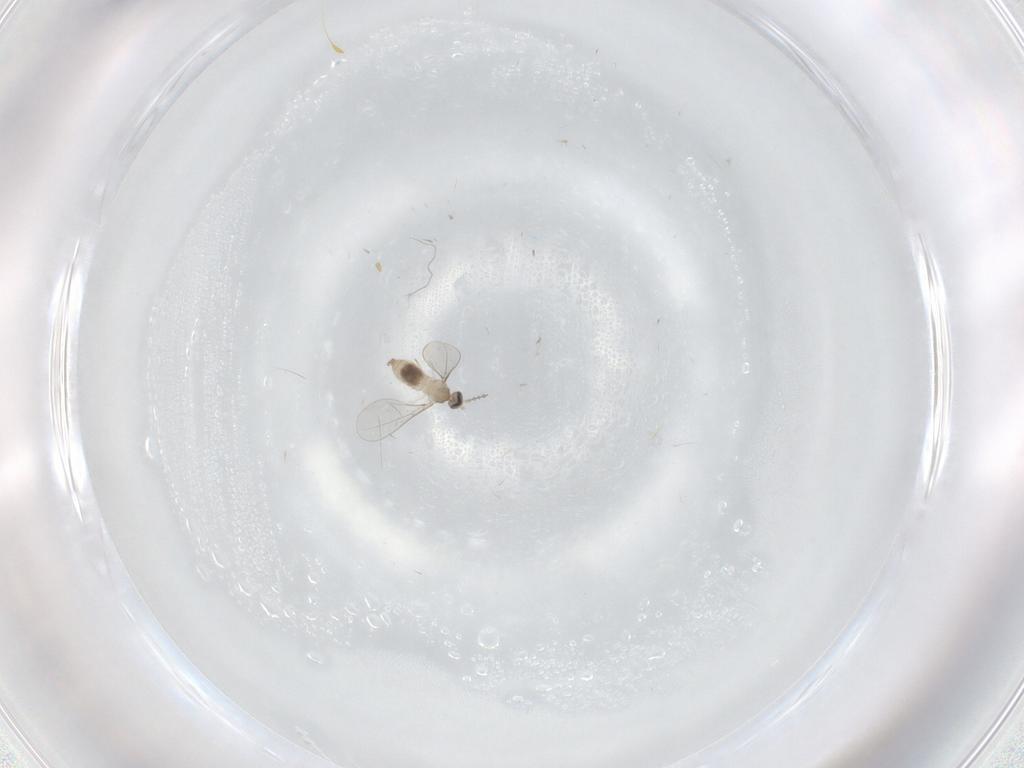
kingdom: Animalia
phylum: Arthropoda
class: Insecta
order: Diptera
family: Cecidomyiidae
